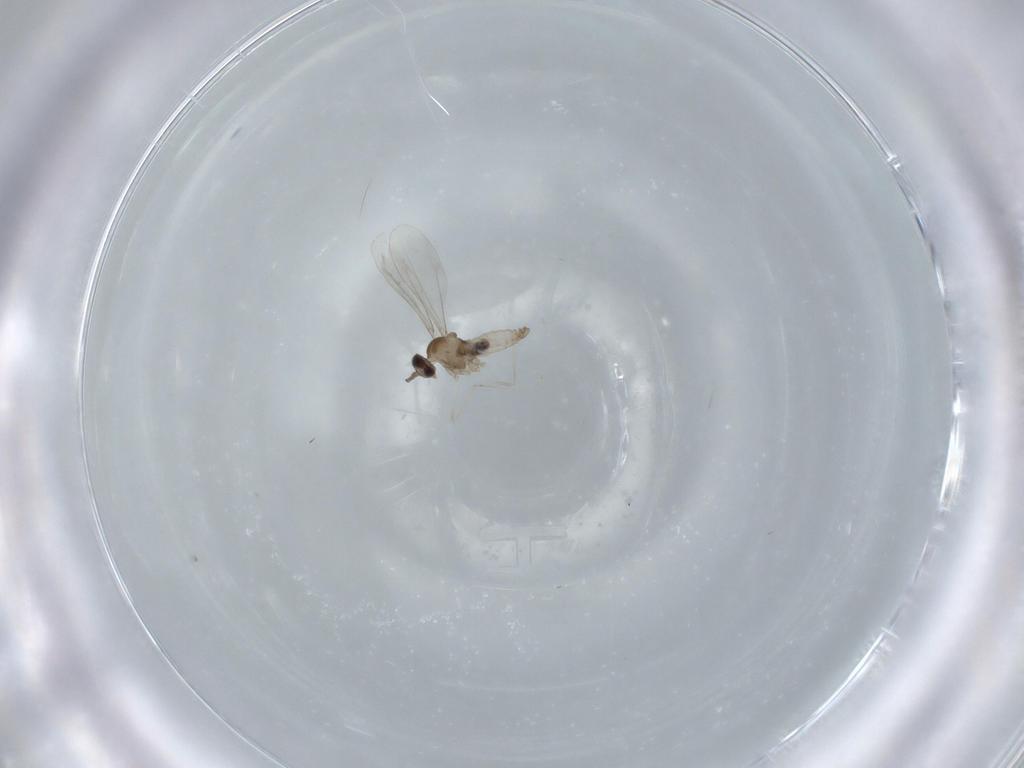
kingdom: Animalia
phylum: Arthropoda
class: Insecta
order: Diptera
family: Cecidomyiidae
